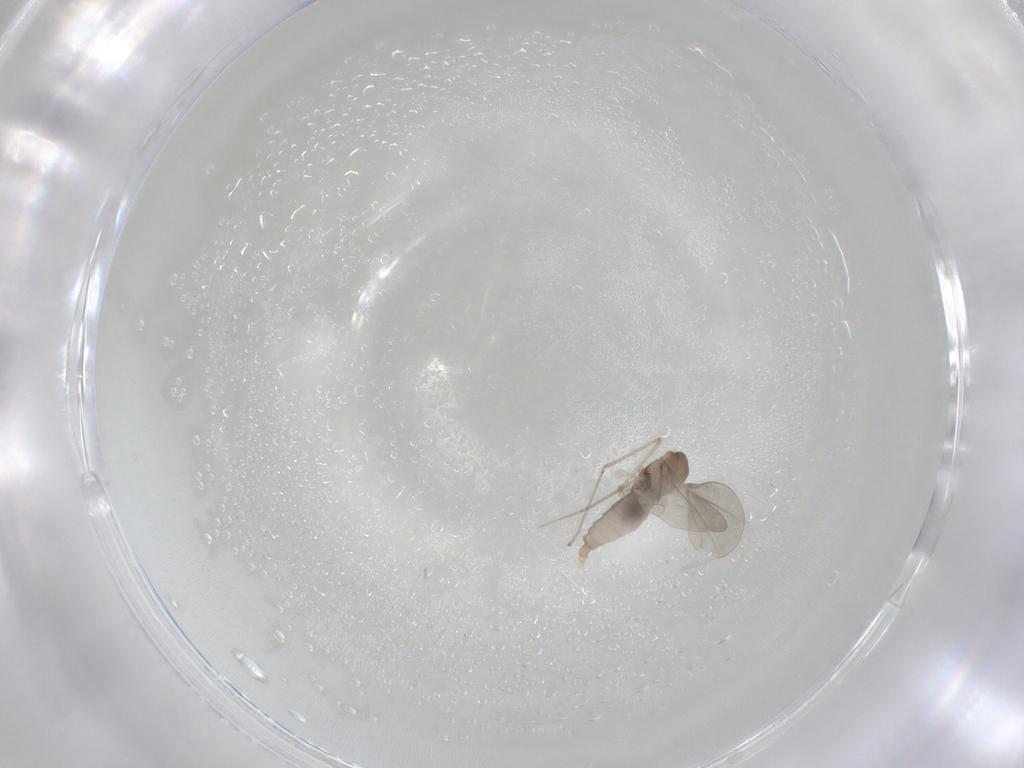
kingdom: Animalia
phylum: Arthropoda
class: Insecta
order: Diptera
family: Cecidomyiidae
